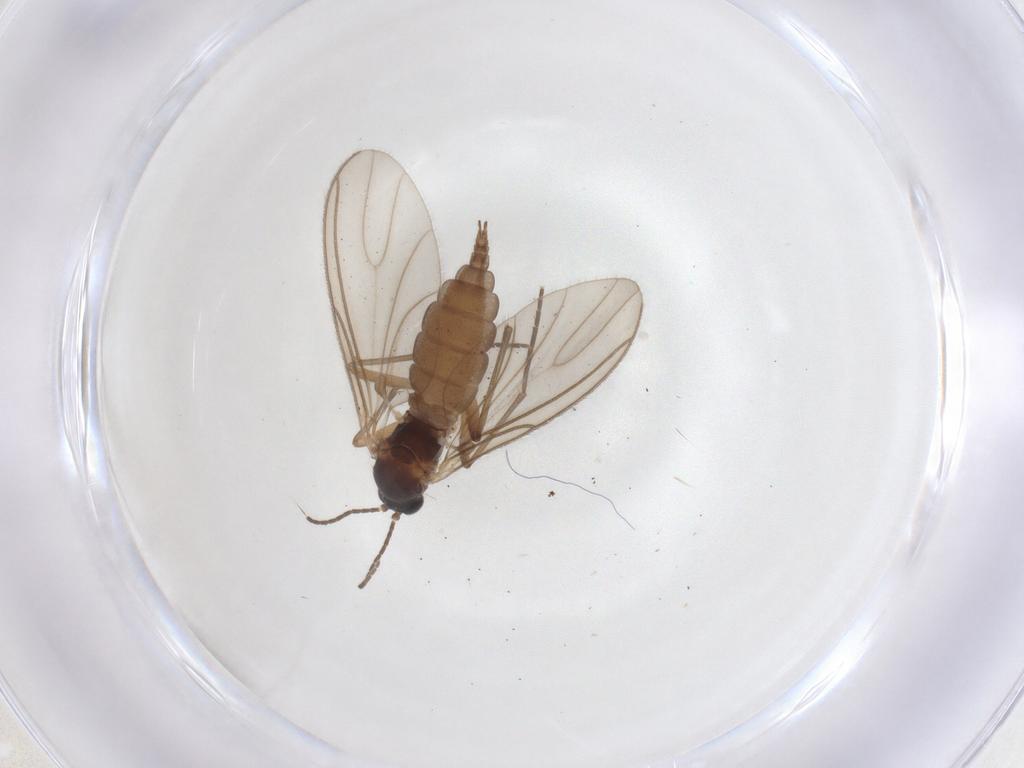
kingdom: Animalia
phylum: Arthropoda
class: Insecta
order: Diptera
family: Sciaridae
